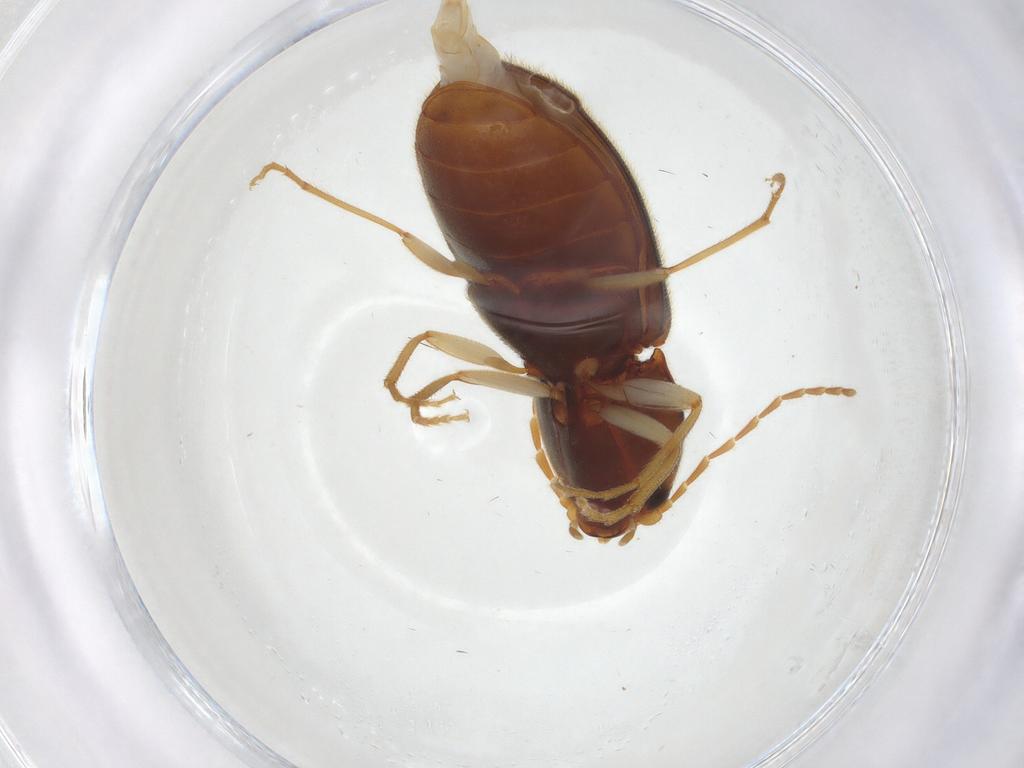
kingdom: Animalia
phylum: Arthropoda
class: Insecta
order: Coleoptera
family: Elateridae
